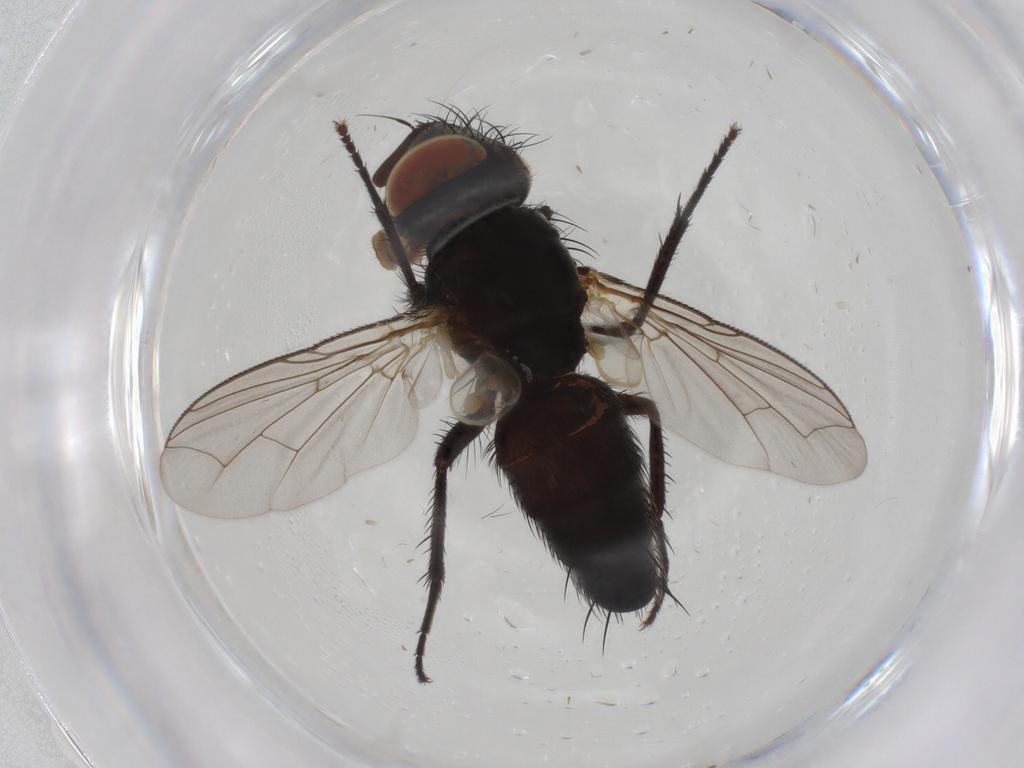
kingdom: Animalia
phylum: Arthropoda
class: Insecta
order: Diptera
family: Sarcophagidae
